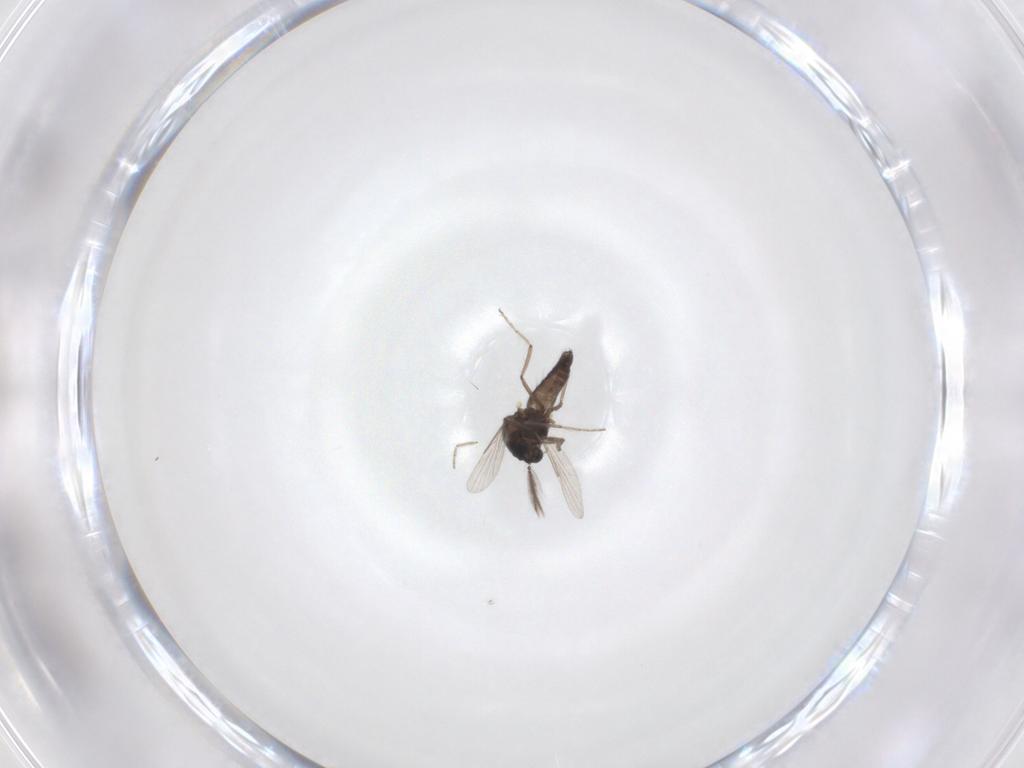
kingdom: Animalia
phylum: Arthropoda
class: Insecta
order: Diptera
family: Ceratopogonidae
